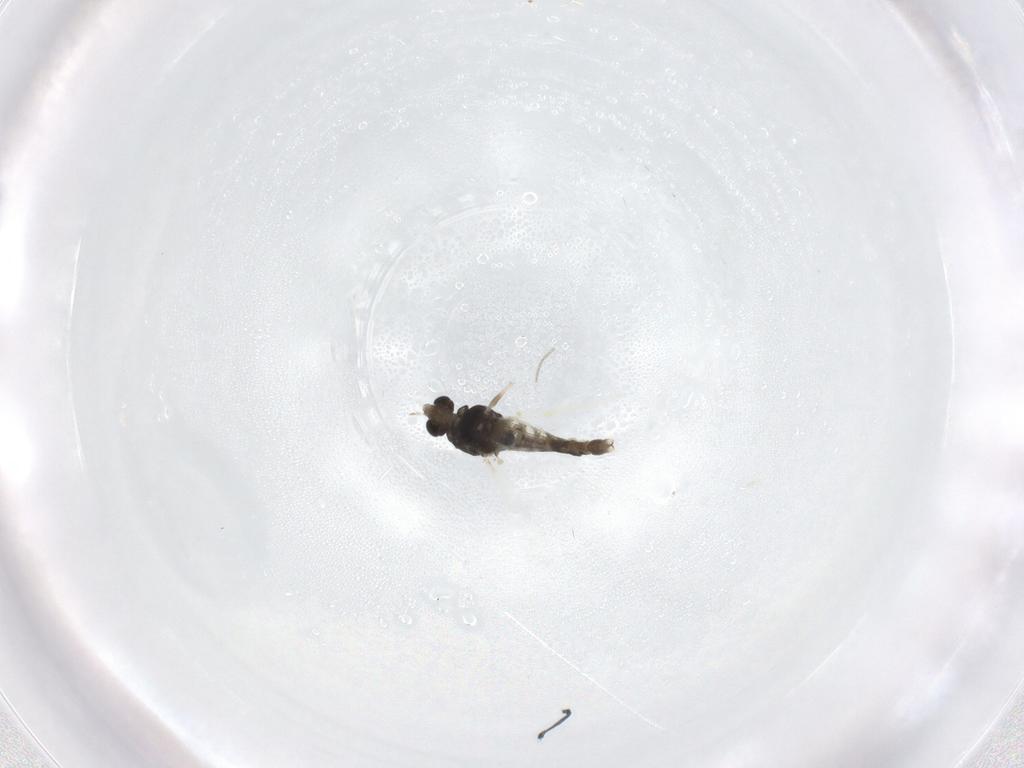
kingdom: Animalia
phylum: Arthropoda
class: Insecta
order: Diptera
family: Chironomidae
